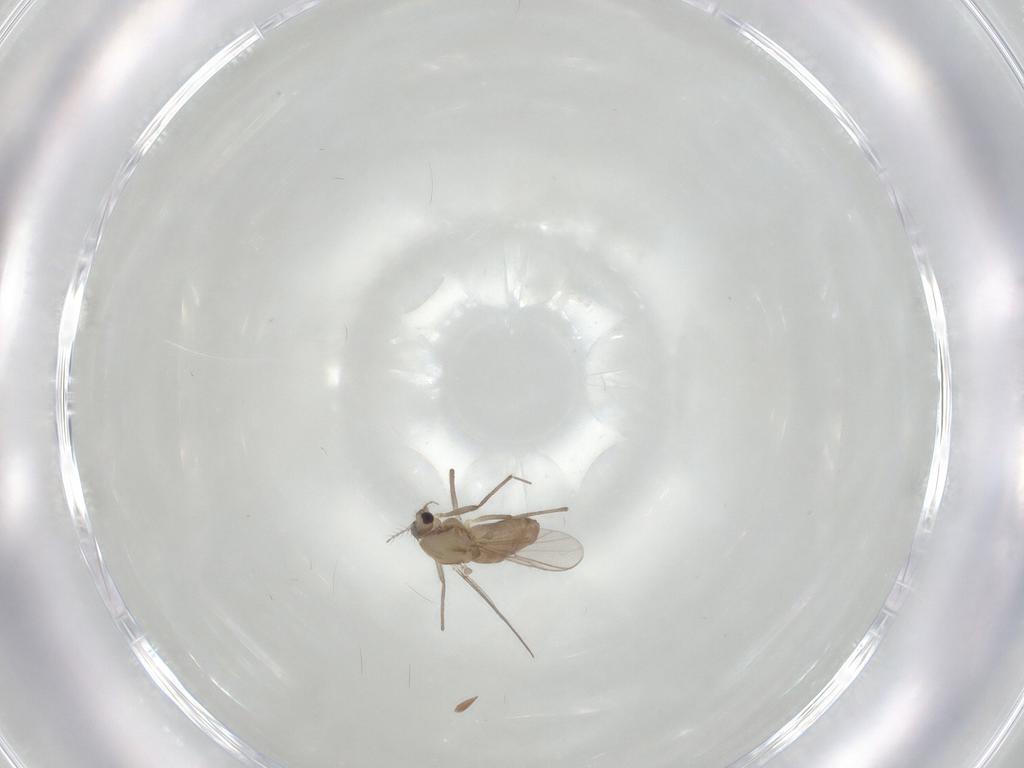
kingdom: Animalia
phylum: Arthropoda
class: Insecta
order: Diptera
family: Chironomidae
